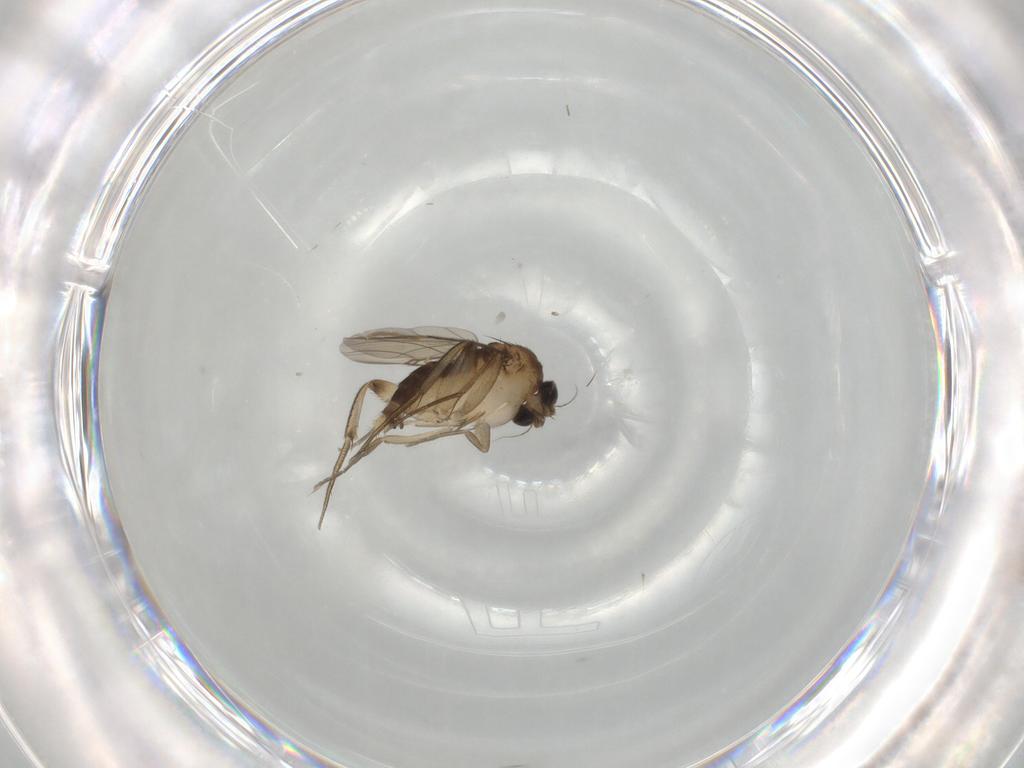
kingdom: Animalia
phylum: Arthropoda
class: Insecta
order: Diptera
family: Phoridae
